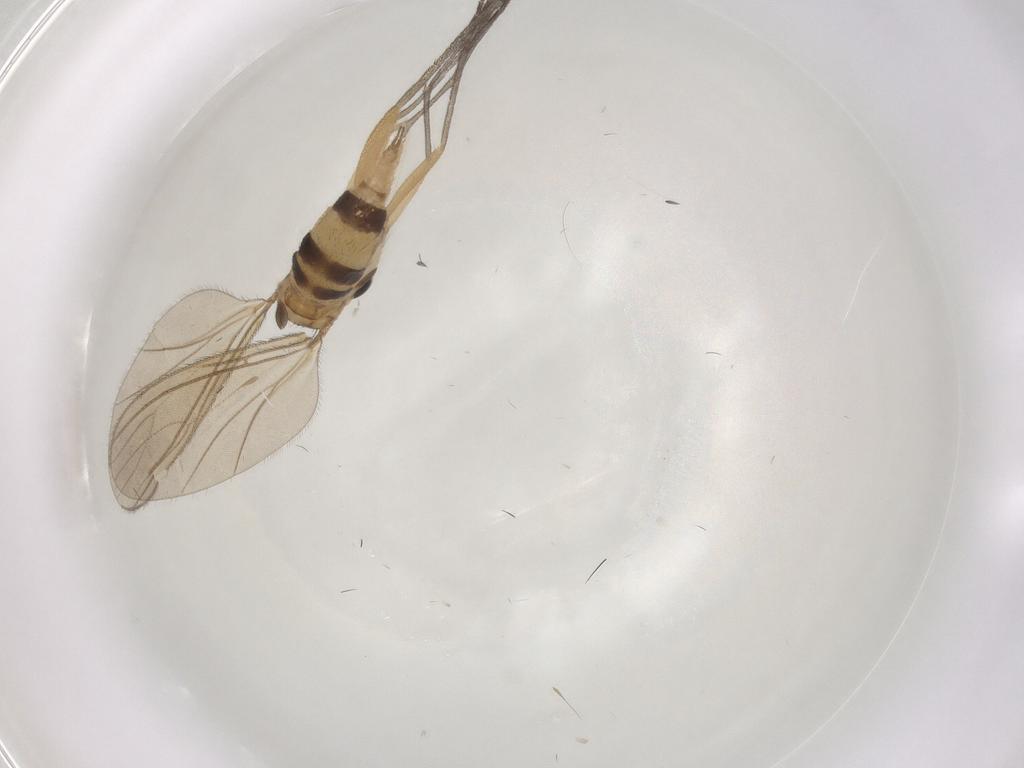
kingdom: Animalia
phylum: Arthropoda
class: Insecta
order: Diptera
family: Sciaridae
